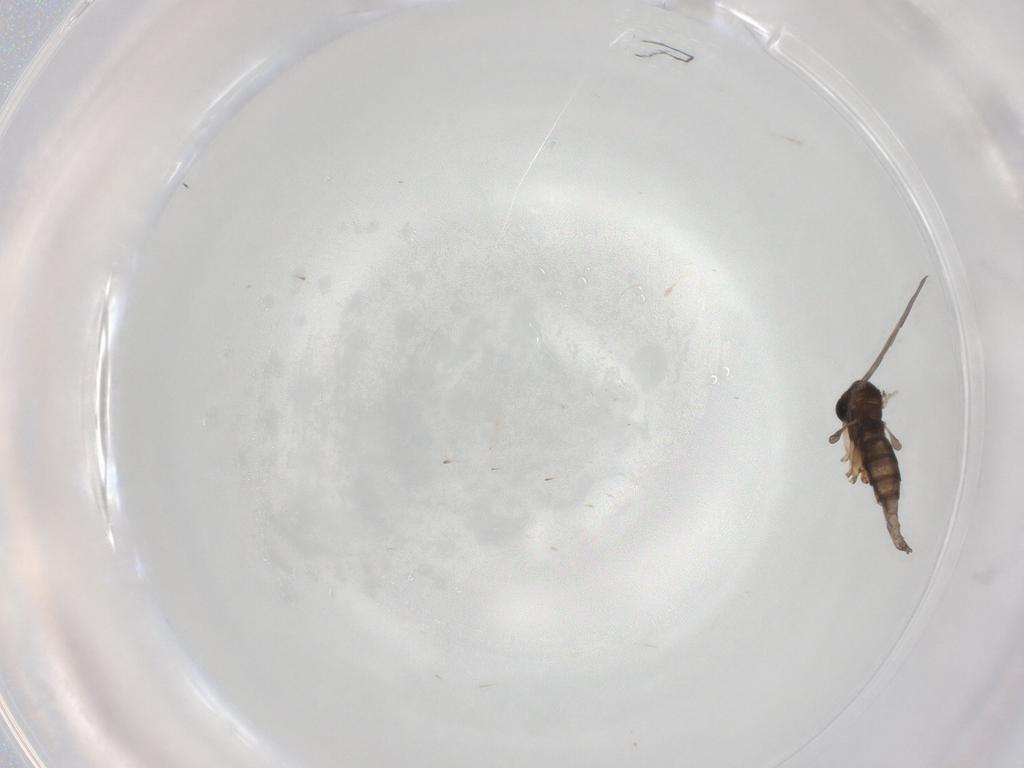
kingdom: Animalia
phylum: Arthropoda
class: Insecta
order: Diptera
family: Sciaridae
